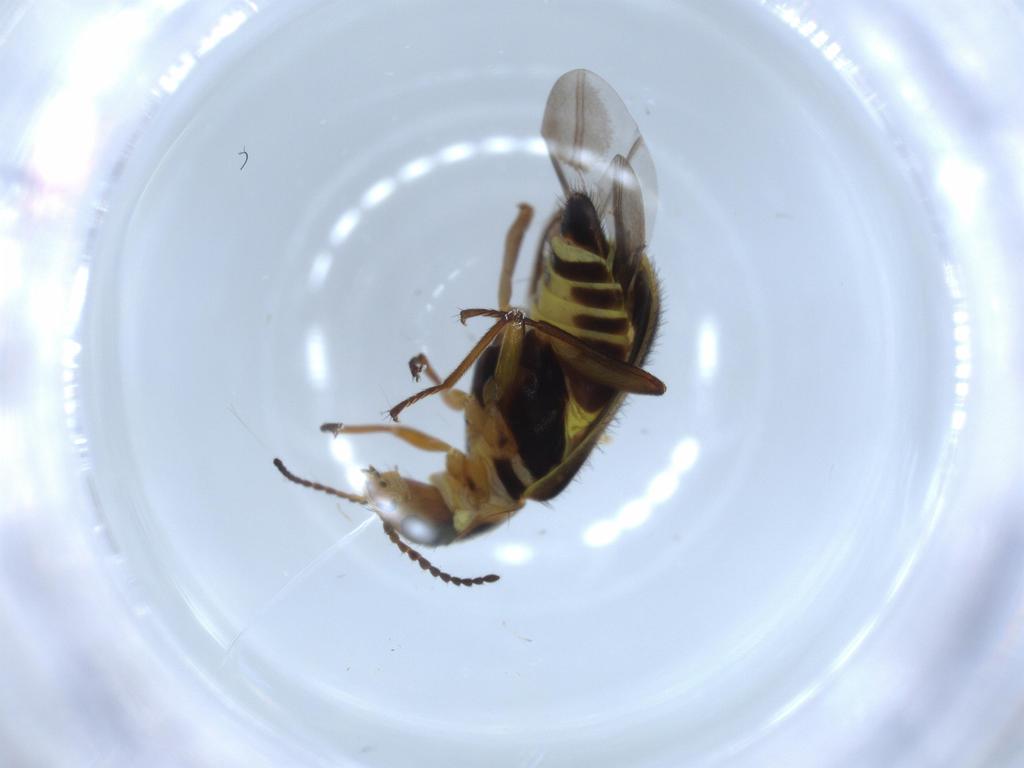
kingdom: Animalia
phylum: Arthropoda
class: Insecta
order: Coleoptera
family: Melyridae
